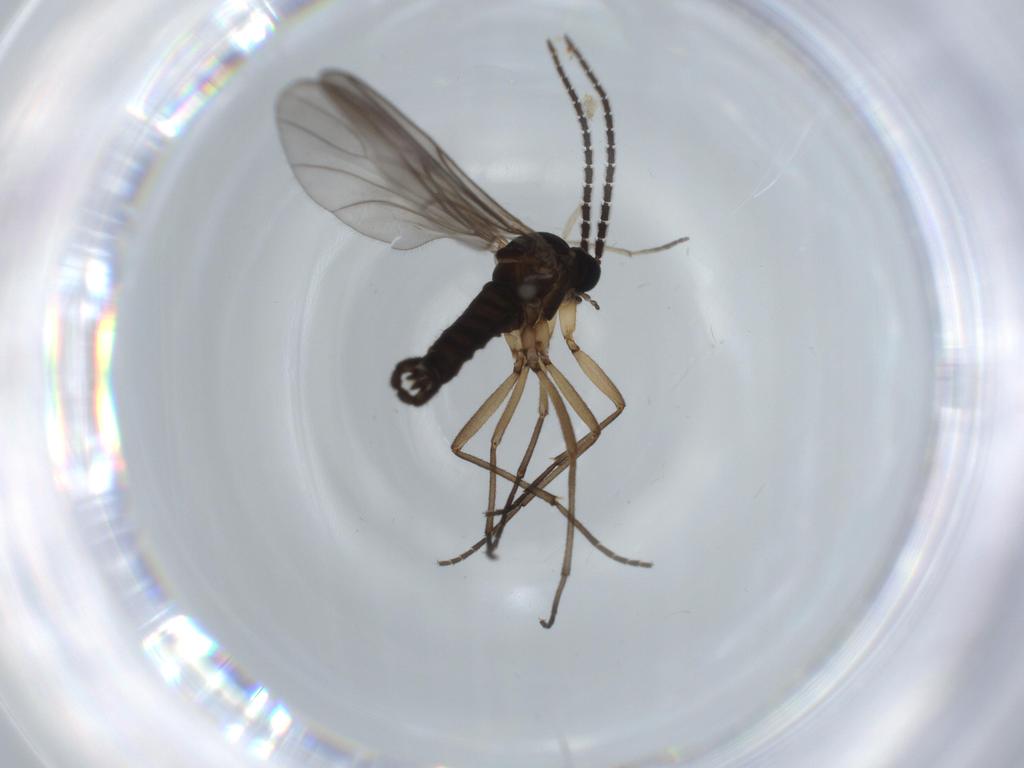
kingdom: Animalia
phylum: Arthropoda
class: Insecta
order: Diptera
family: Sciaridae
